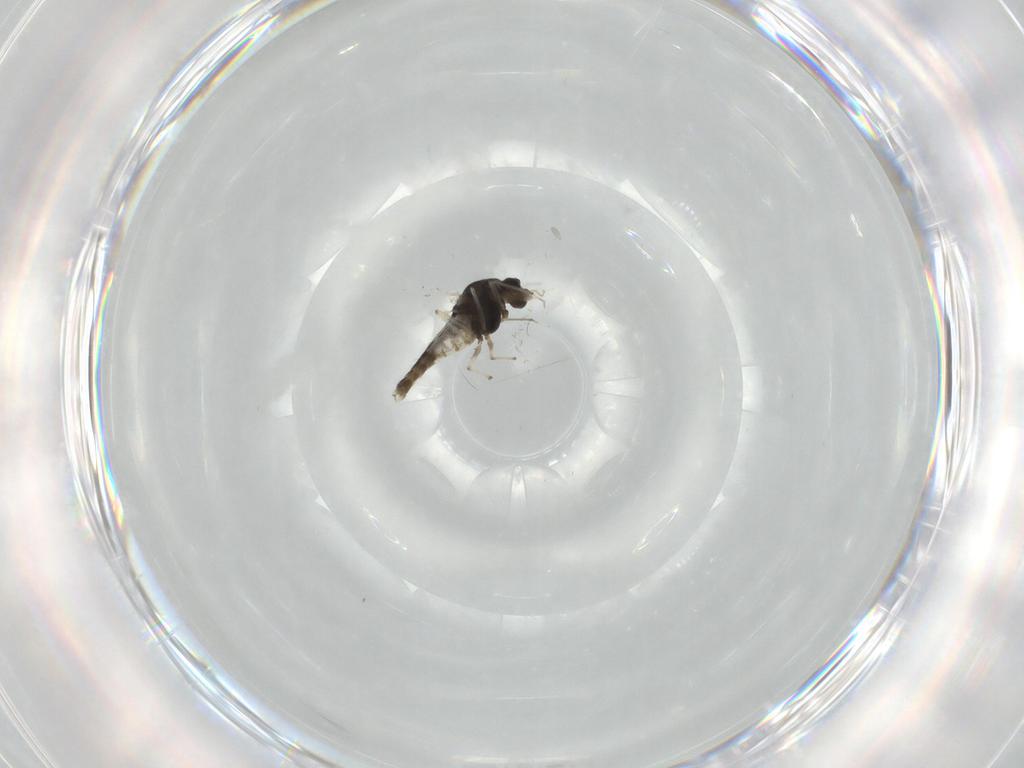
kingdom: Animalia
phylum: Arthropoda
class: Insecta
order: Diptera
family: Chironomidae
